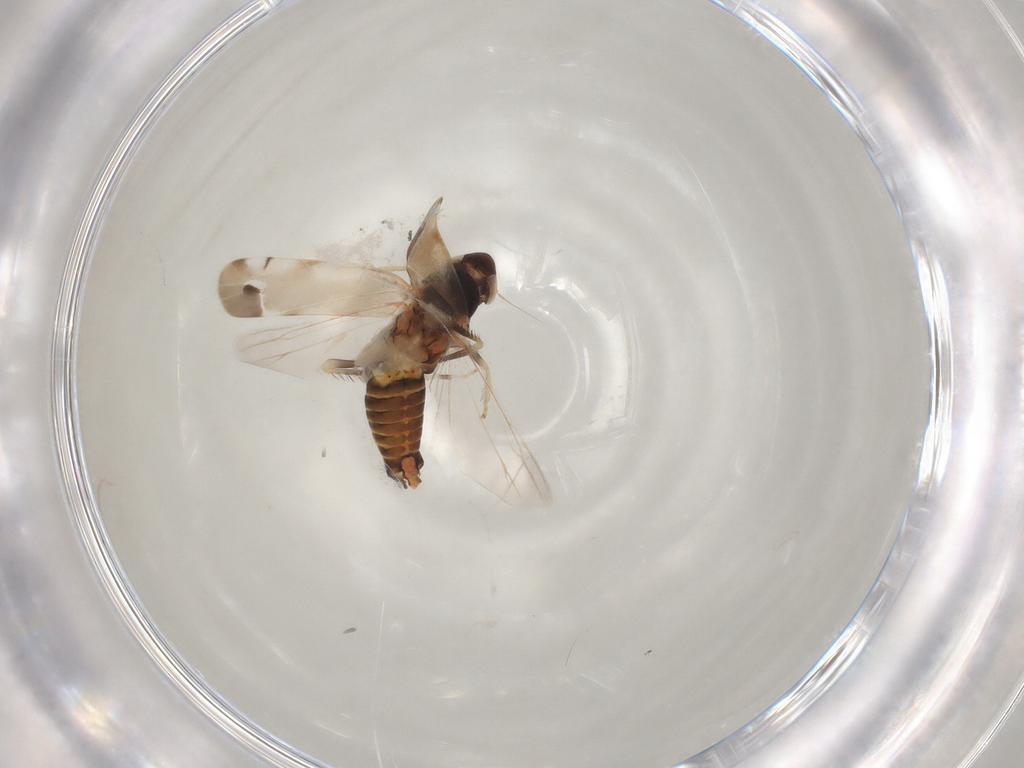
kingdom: Animalia
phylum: Arthropoda
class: Insecta
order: Hemiptera
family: Cicadellidae
